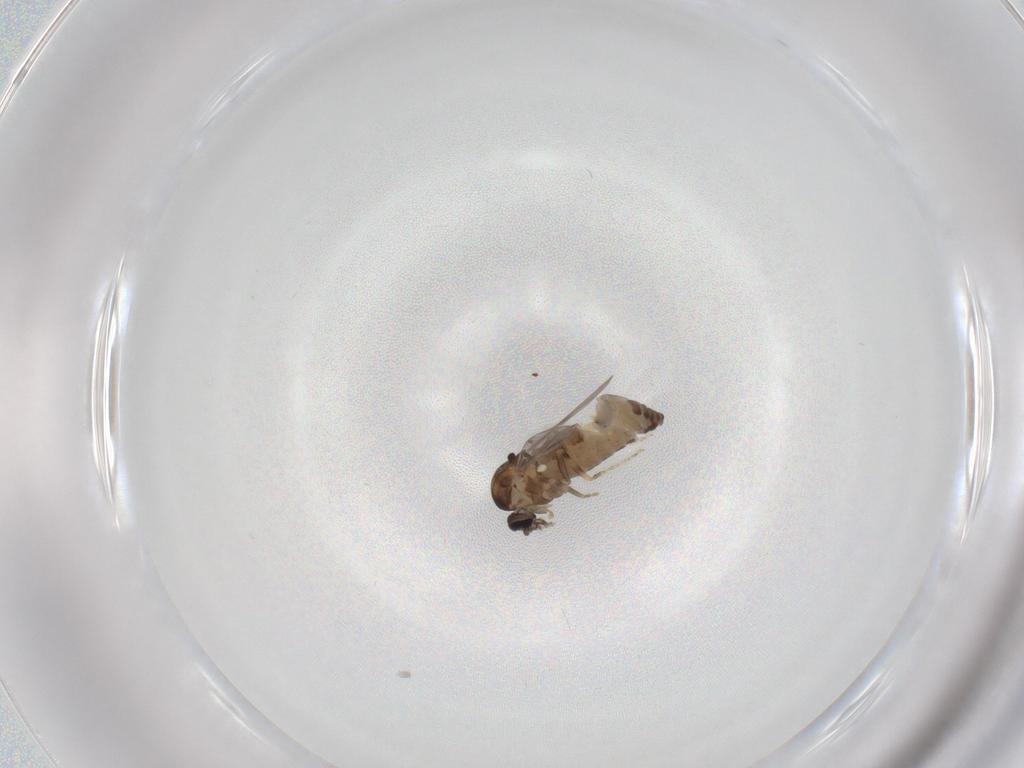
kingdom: Animalia
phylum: Arthropoda
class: Insecta
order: Diptera
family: Ceratopogonidae
